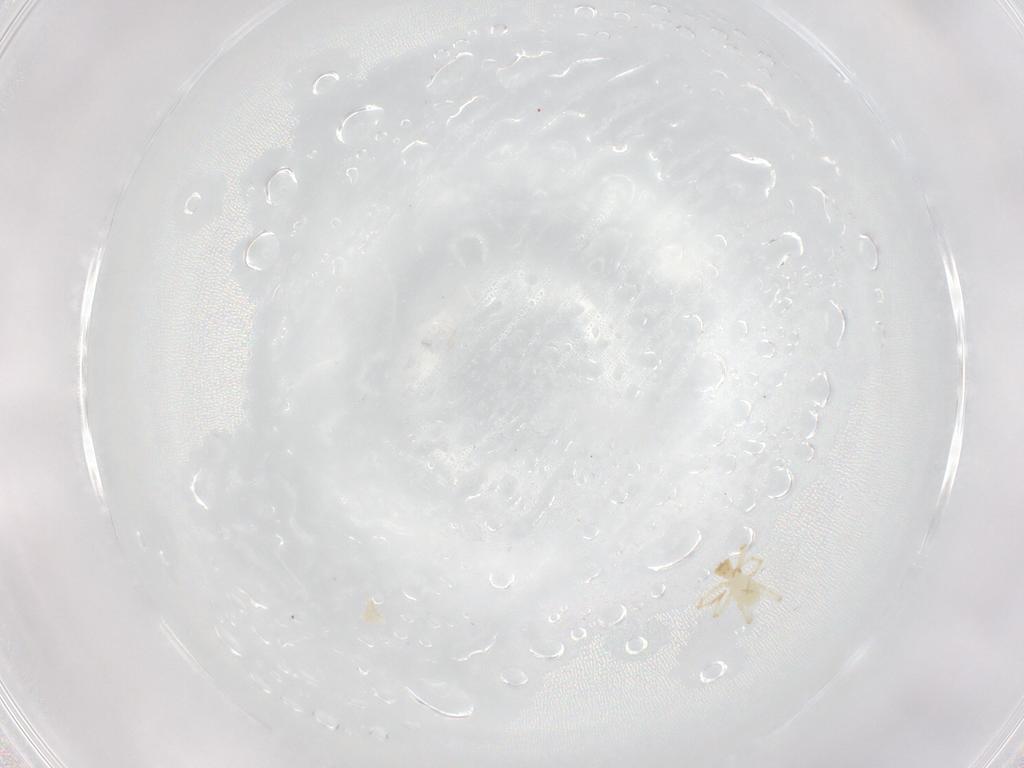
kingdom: Animalia
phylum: Arthropoda
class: Arachnida
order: Trombidiformes
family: Erythraeidae
